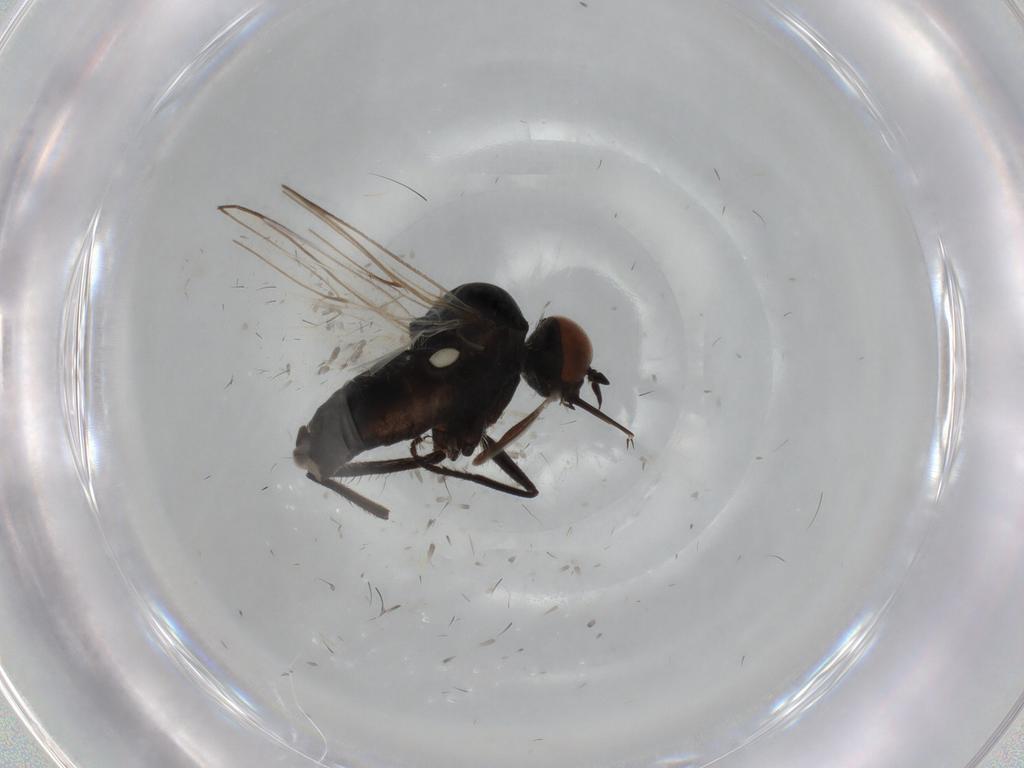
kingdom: Animalia
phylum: Arthropoda
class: Insecta
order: Diptera
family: Empididae
